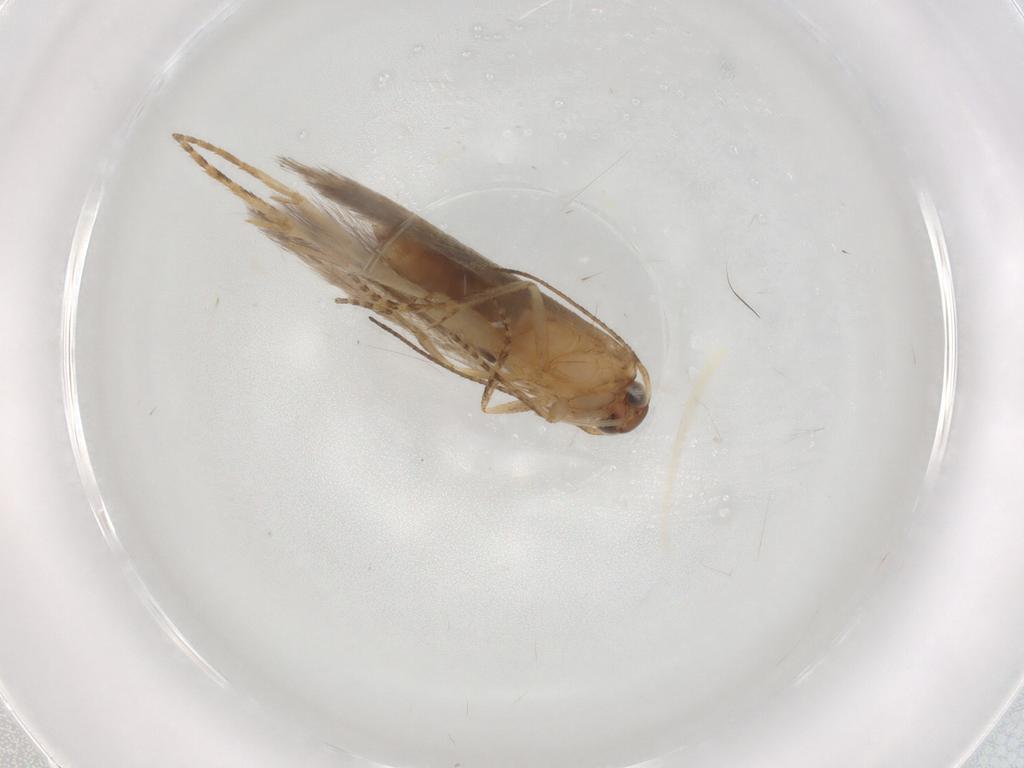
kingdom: Animalia
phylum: Arthropoda
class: Insecta
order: Lepidoptera
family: Gelechiidae
